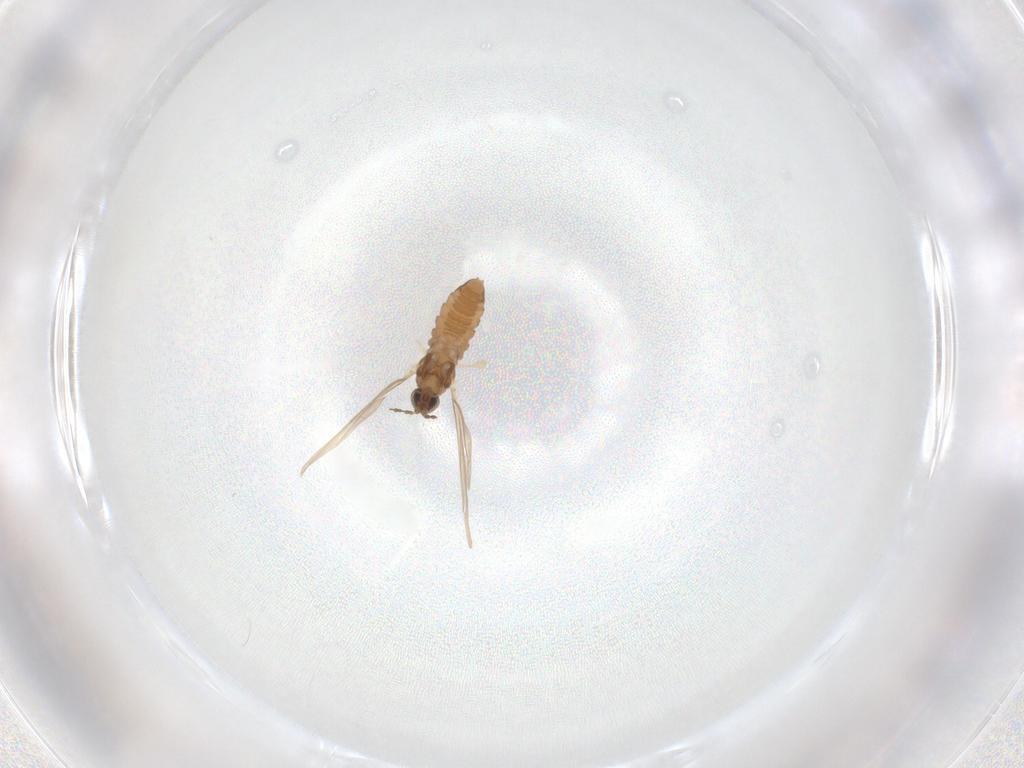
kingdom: Animalia
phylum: Arthropoda
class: Insecta
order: Diptera
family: Cecidomyiidae
